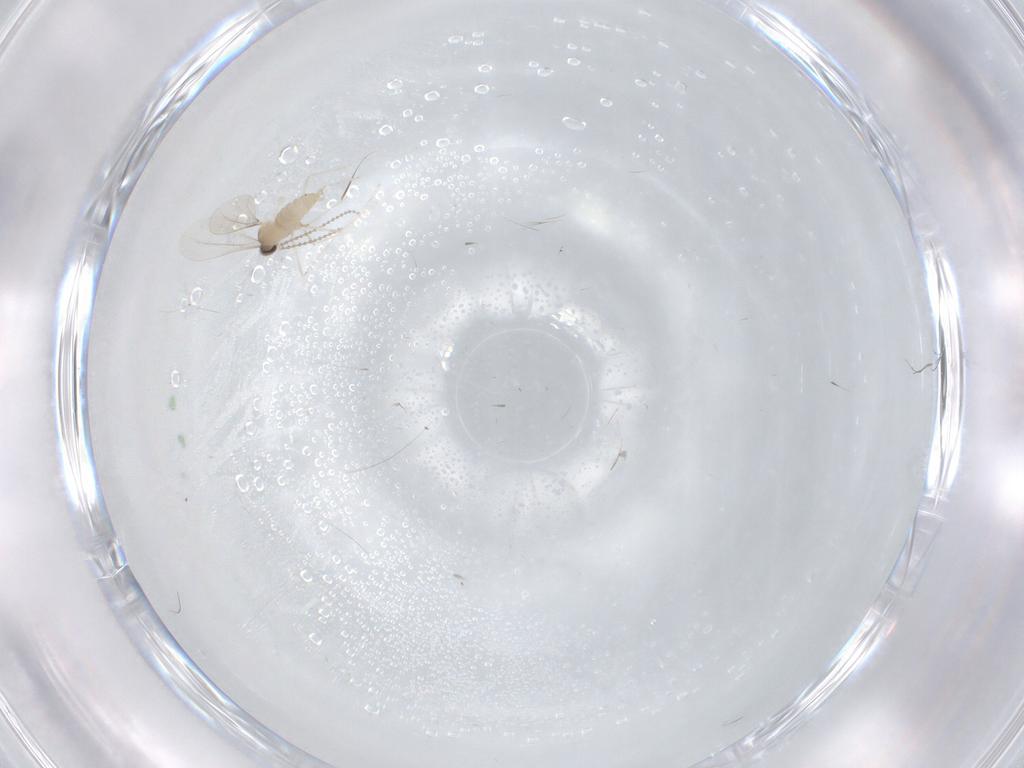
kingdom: Animalia
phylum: Arthropoda
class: Insecta
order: Diptera
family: Cecidomyiidae
